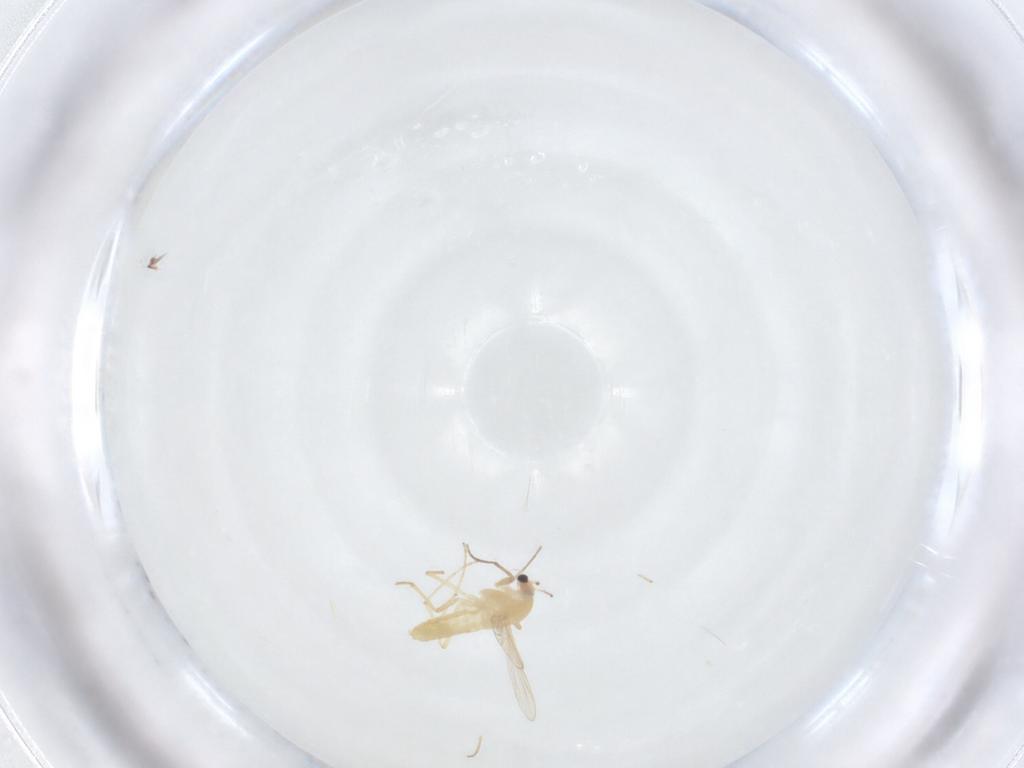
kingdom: Animalia
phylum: Arthropoda
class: Insecta
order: Diptera
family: Chironomidae
